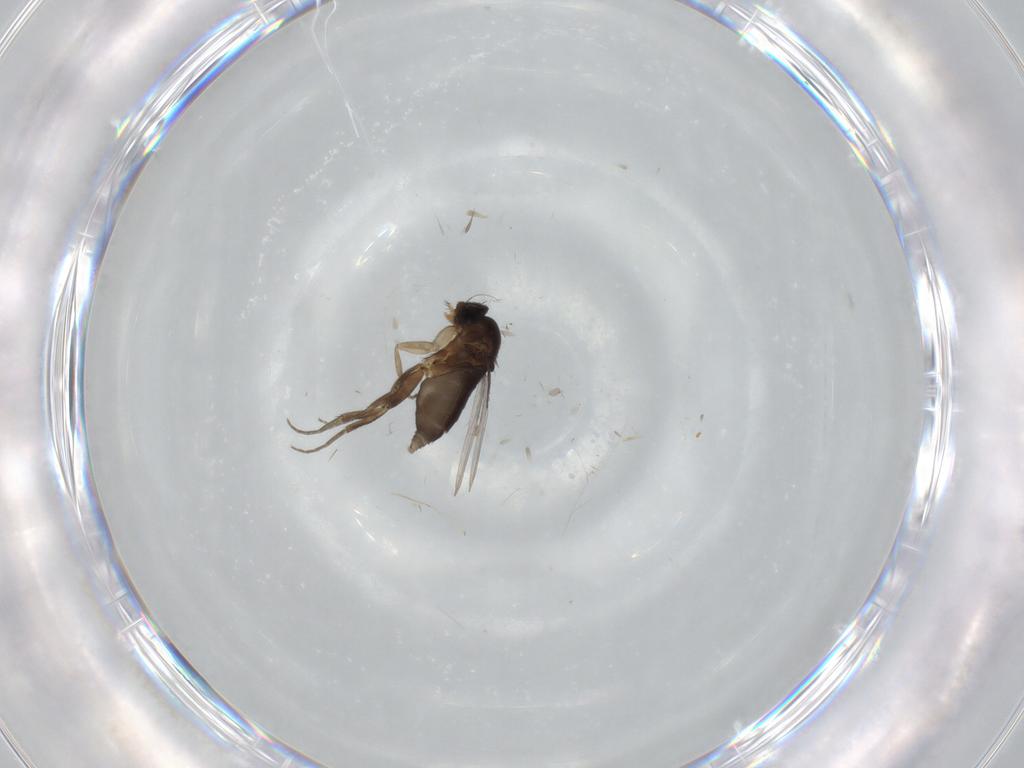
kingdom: Animalia
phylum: Arthropoda
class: Insecta
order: Diptera
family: Phoridae
